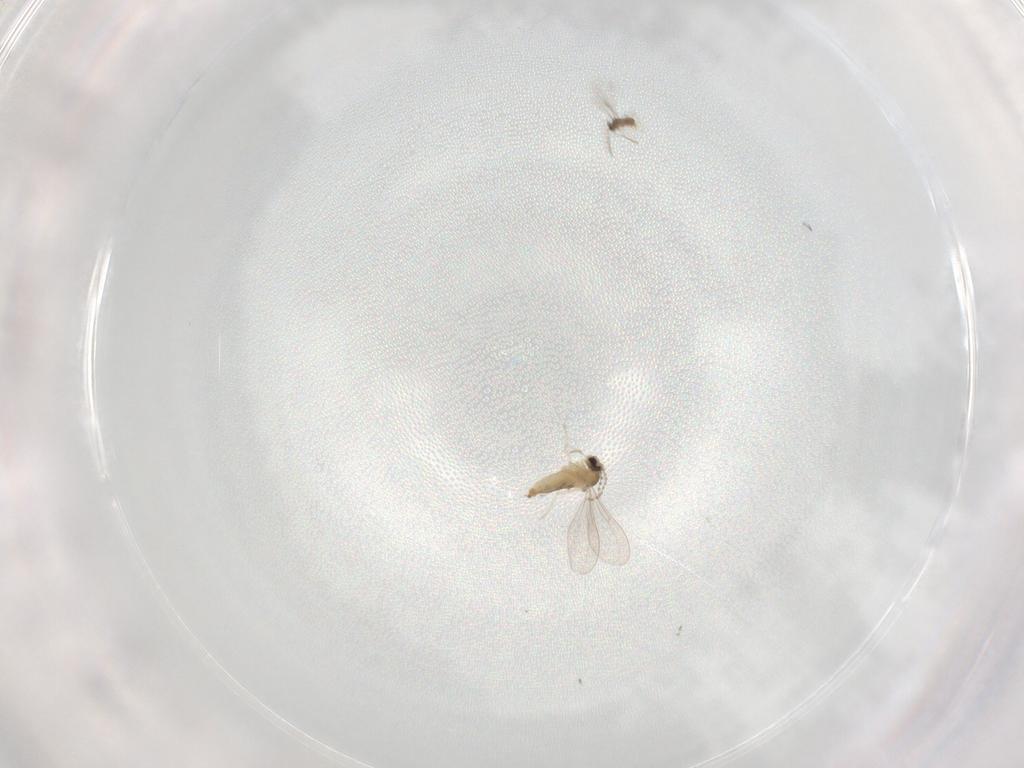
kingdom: Animalia
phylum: Arthropoda
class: Insecta
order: Diptera
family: Cecidomyiidae
